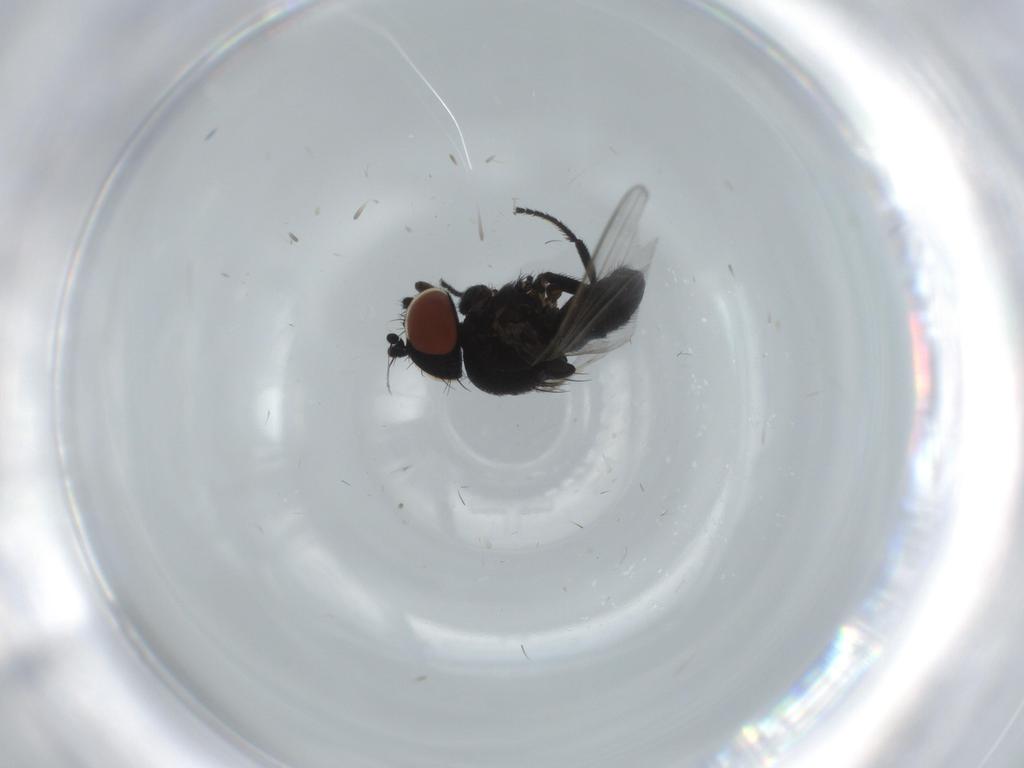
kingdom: Animalia
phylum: Arthropoda
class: Insecta
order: Diptera
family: Milichiidae
